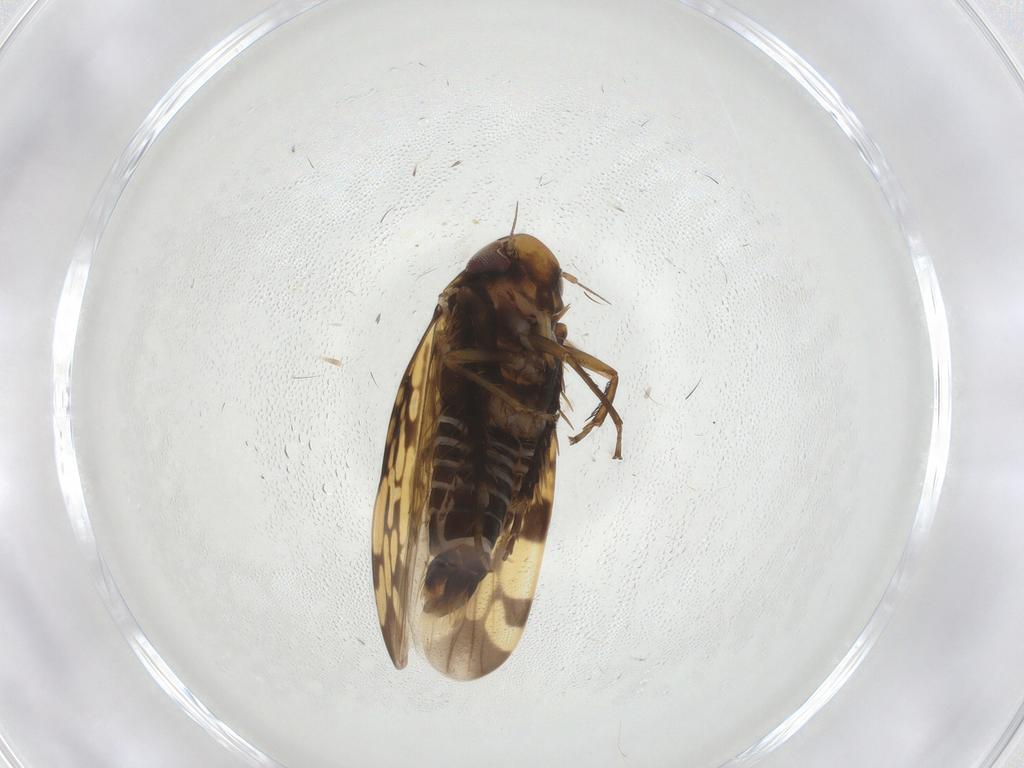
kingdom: Animalia
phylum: Arthropoda
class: Insecta
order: Hemiptera
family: Cicadellidae
